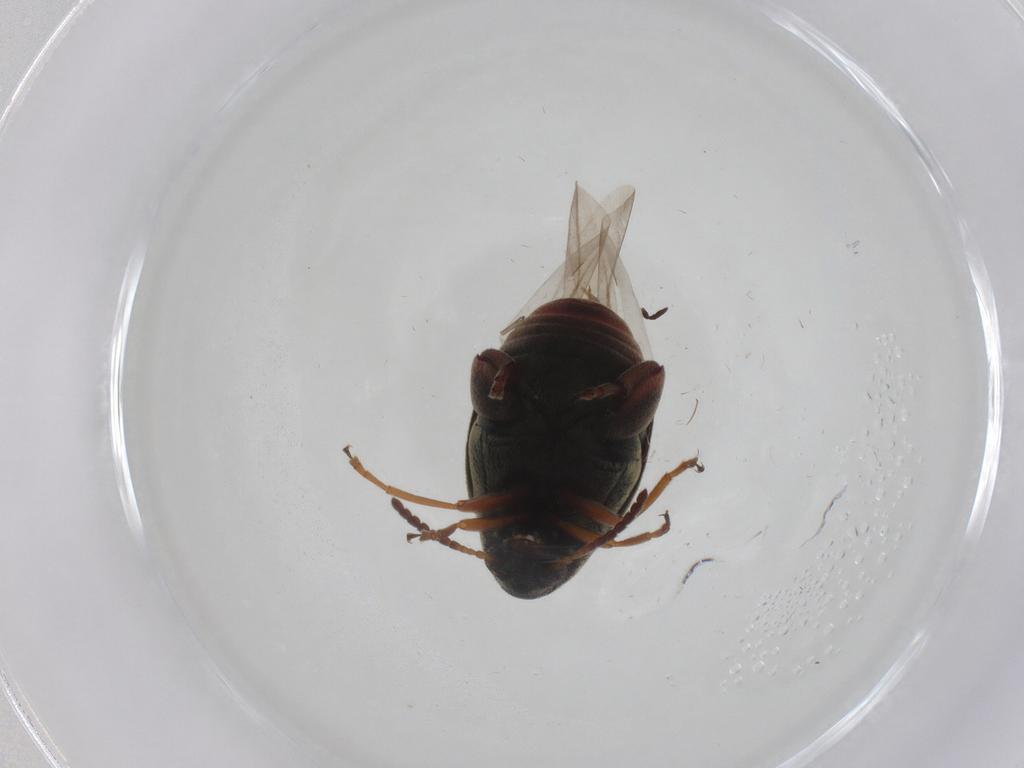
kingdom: Animalia
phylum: Arthropoda
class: Insecta
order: Coleoptera
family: Chrysomelidae
